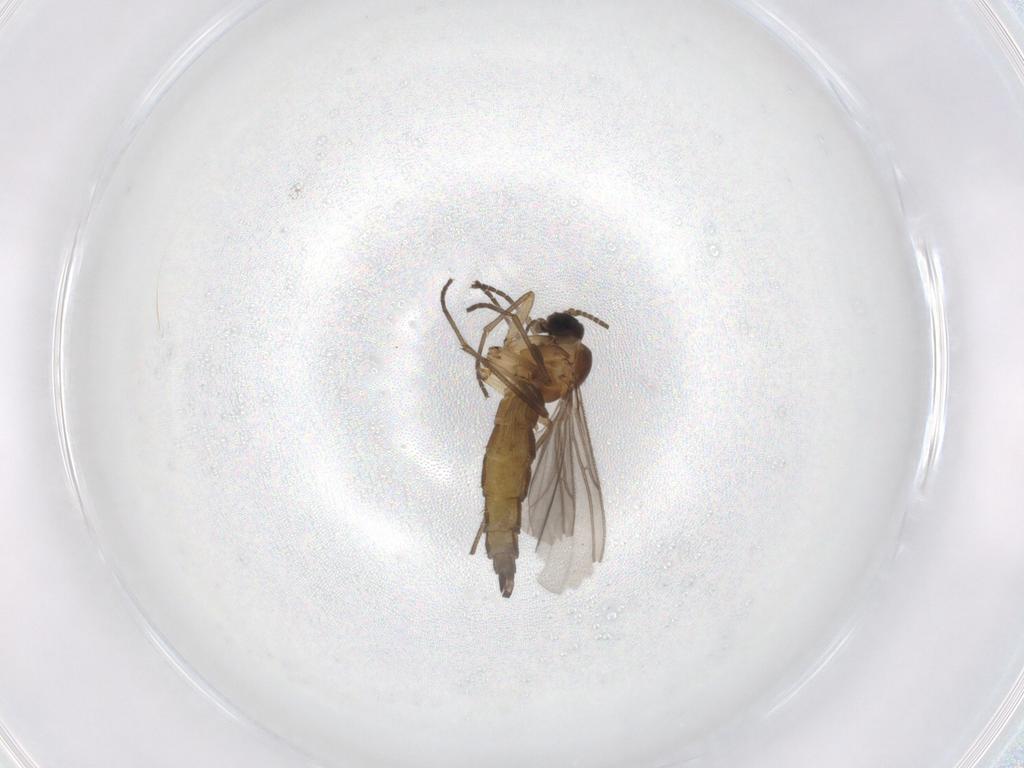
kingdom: Animalia
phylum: Arthropoda
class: Insecta
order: Diptera
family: Sciaridae
